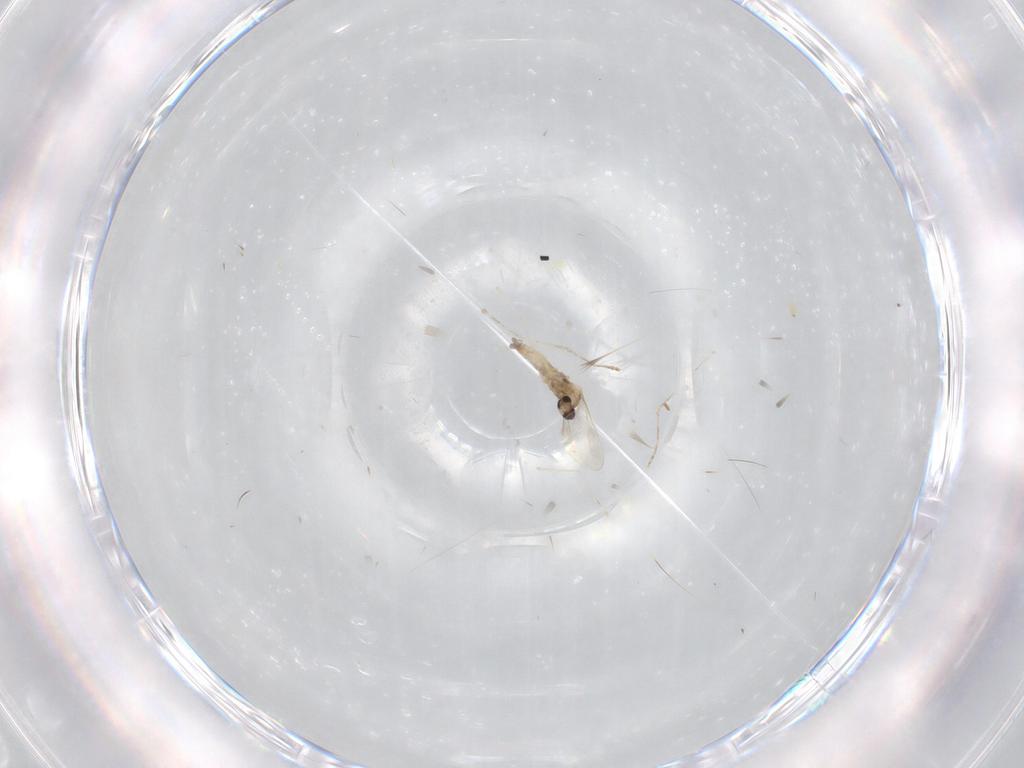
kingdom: Animalia
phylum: Arthropoda
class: Insecta
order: Diptera
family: Cecidomyiidae
